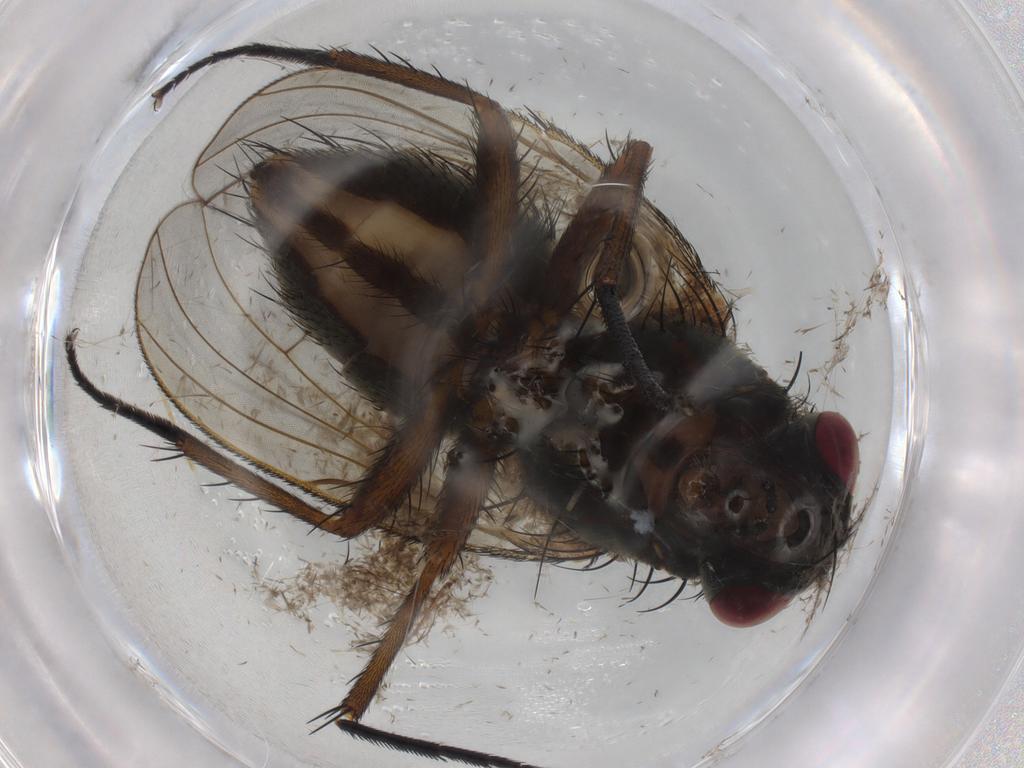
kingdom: Animalia
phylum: Arthropoda
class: Insecta
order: Diptera
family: Muscidae
